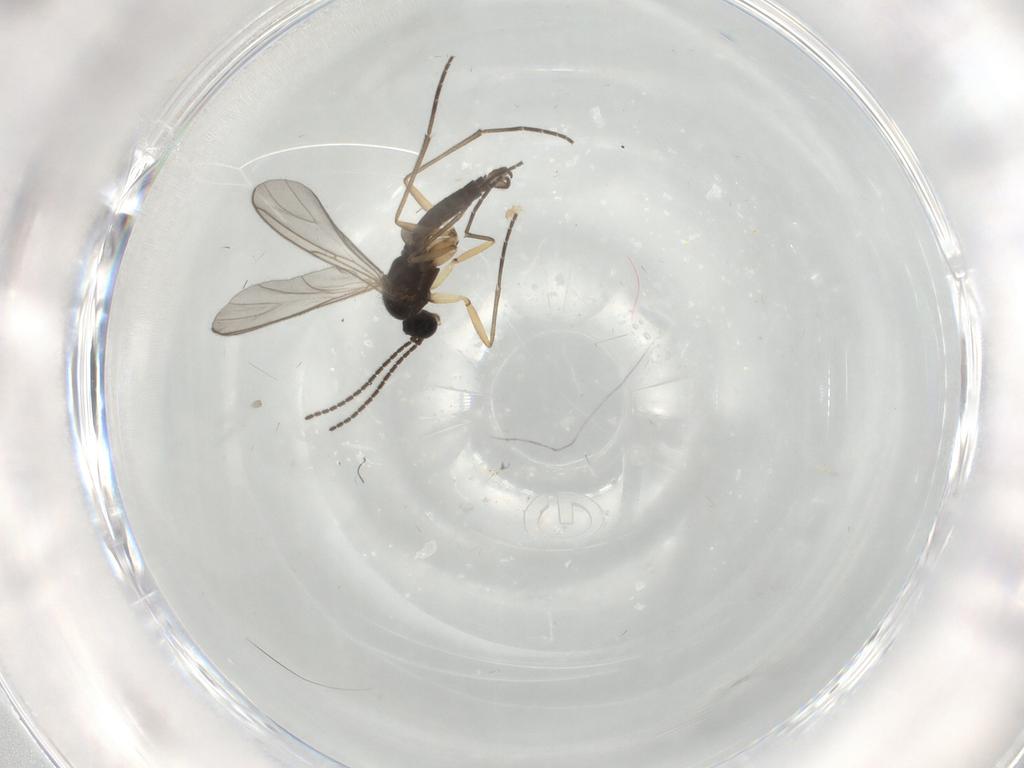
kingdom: Animalia
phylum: Arthropoda
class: Insecta
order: Diptera
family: Sciaridae
